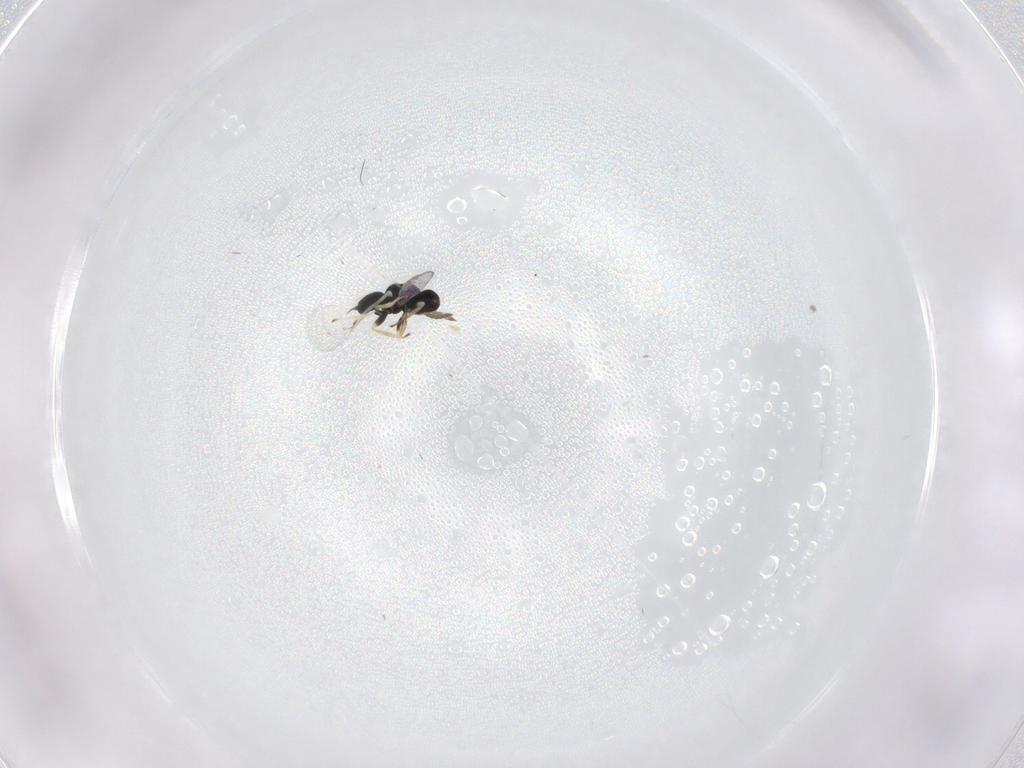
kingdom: Animalia
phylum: Arthropoda
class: Insecta
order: Hymenoptera
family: Eulophidae
